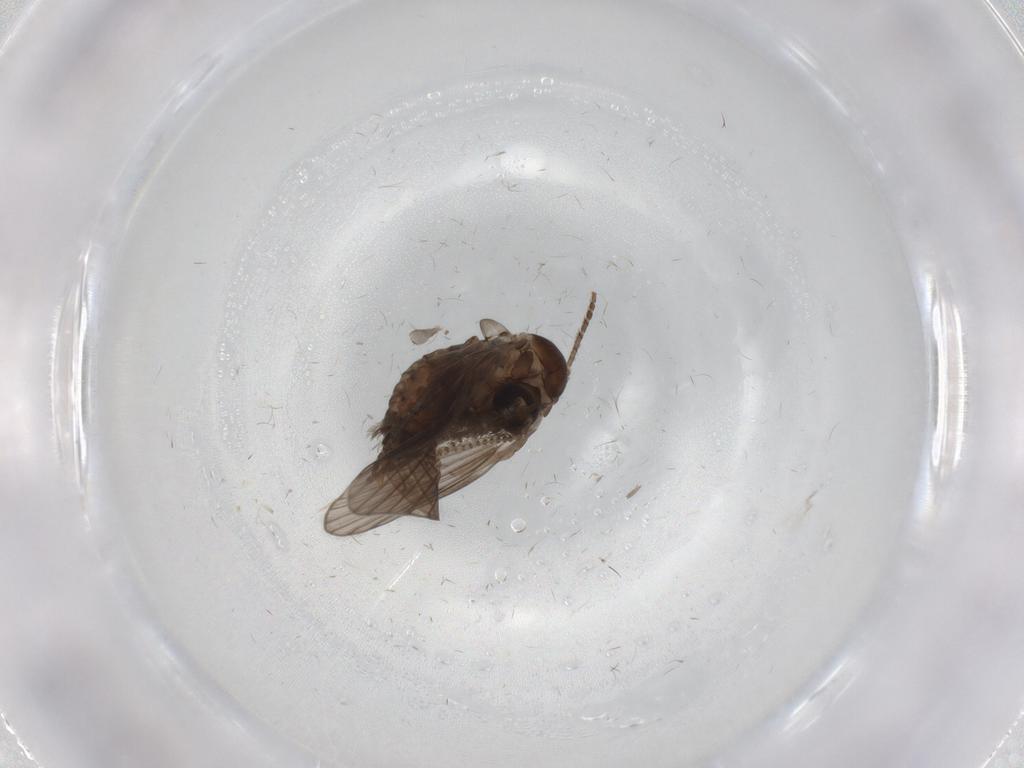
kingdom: Animalia
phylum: Arthropoda
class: Insecta
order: Diptera
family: Psychodidae
